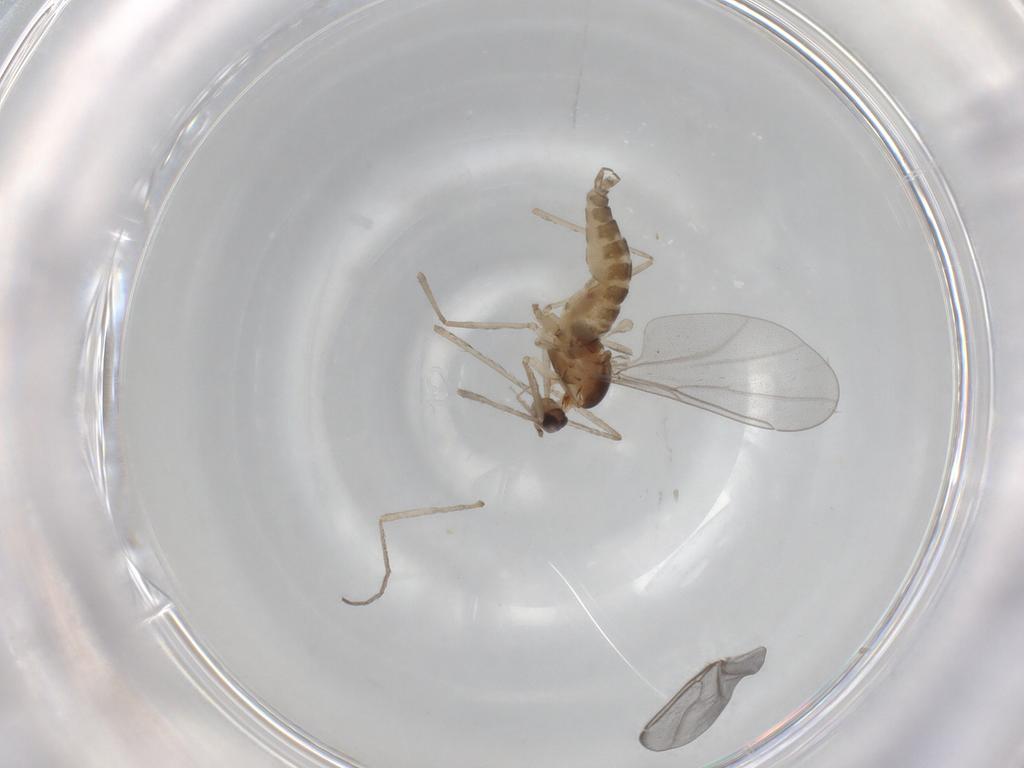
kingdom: Animalia
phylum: Arthropoda
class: Insecta
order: Diptera
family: Cecidomyiidae
